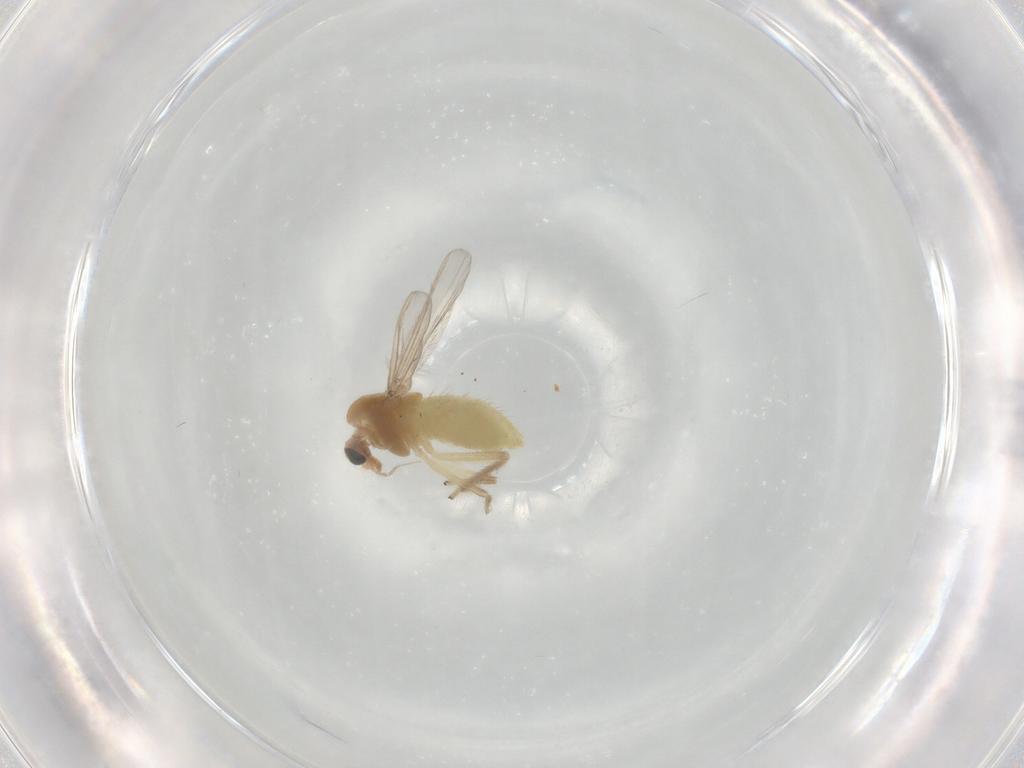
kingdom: Animalia
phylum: Arthropoda
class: Insecta
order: Diptera
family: Chironomidae
